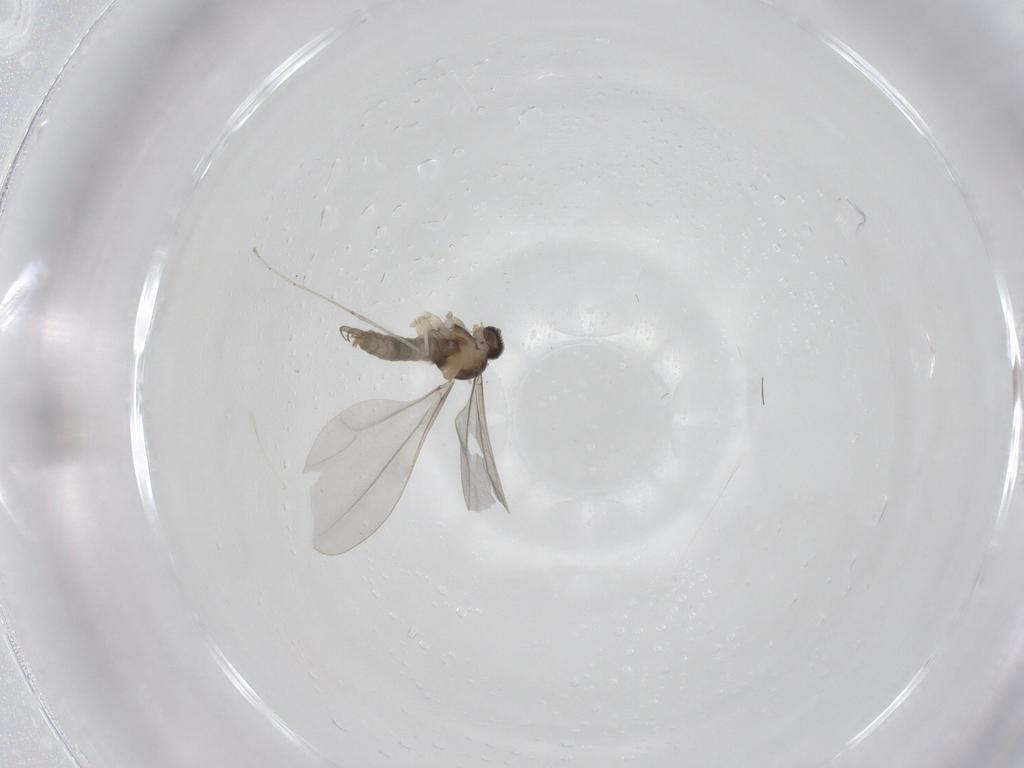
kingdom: Animalia
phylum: Arthropoda
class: Insecta
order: Diptera
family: Cecidomyiidae
